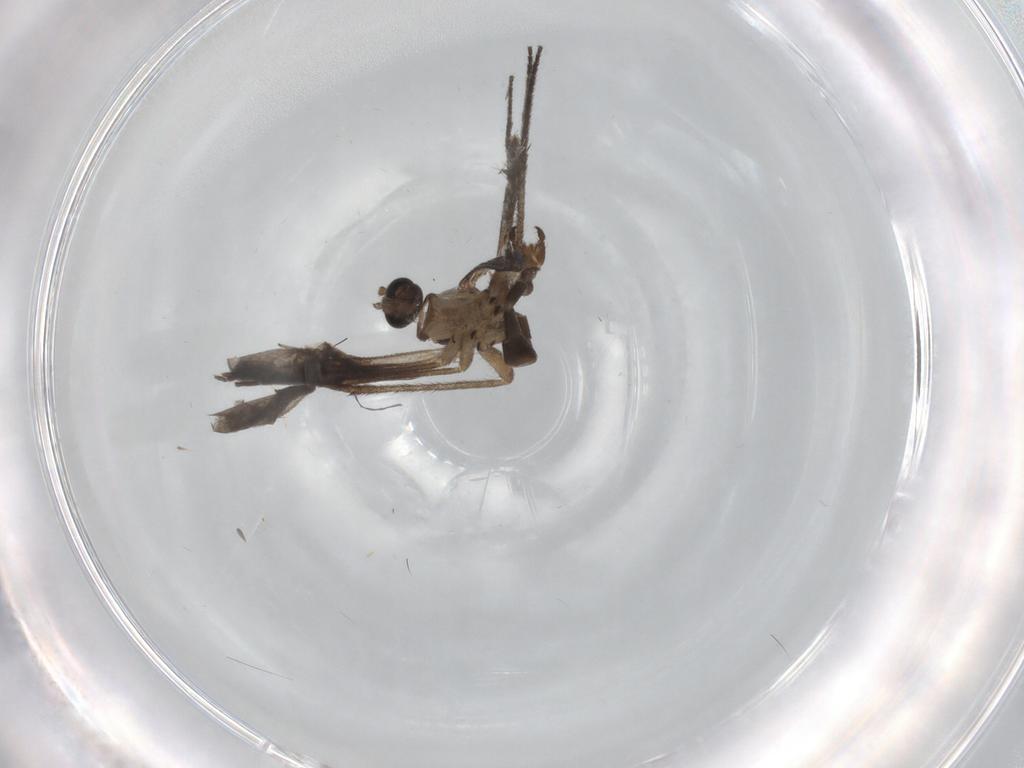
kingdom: Animalia
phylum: Arthropoda
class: Insecta
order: Diptera
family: Sciaridae
